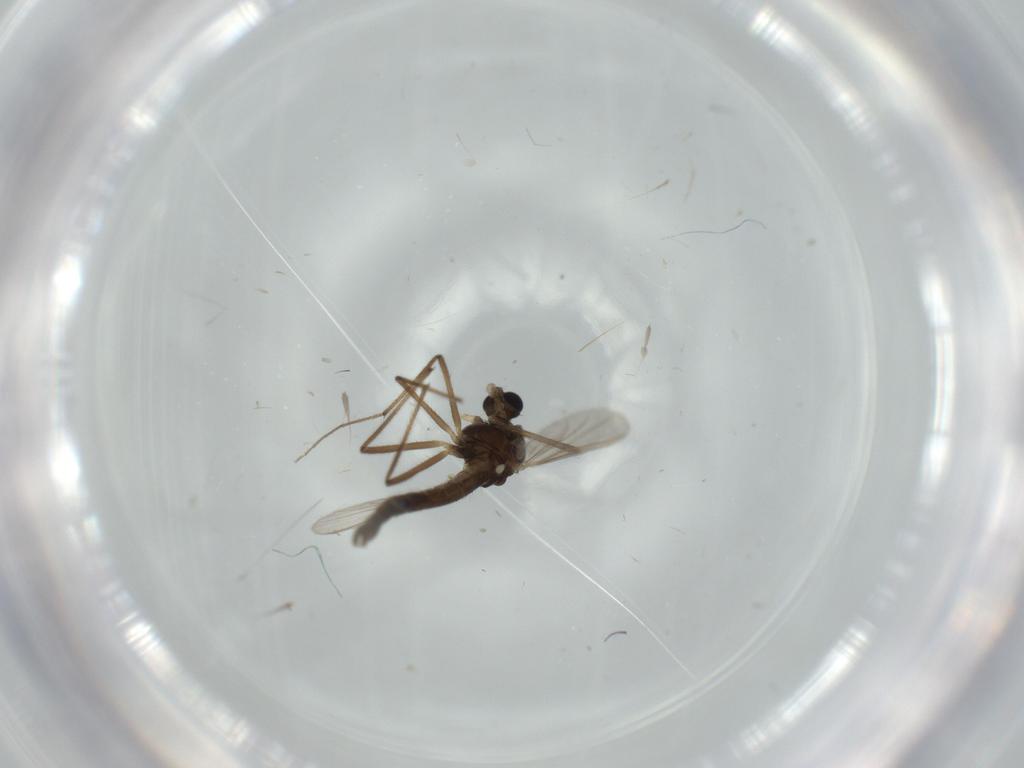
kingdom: Animalia
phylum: Arthropoda
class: Insecta
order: Diptera
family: Chironomidae
